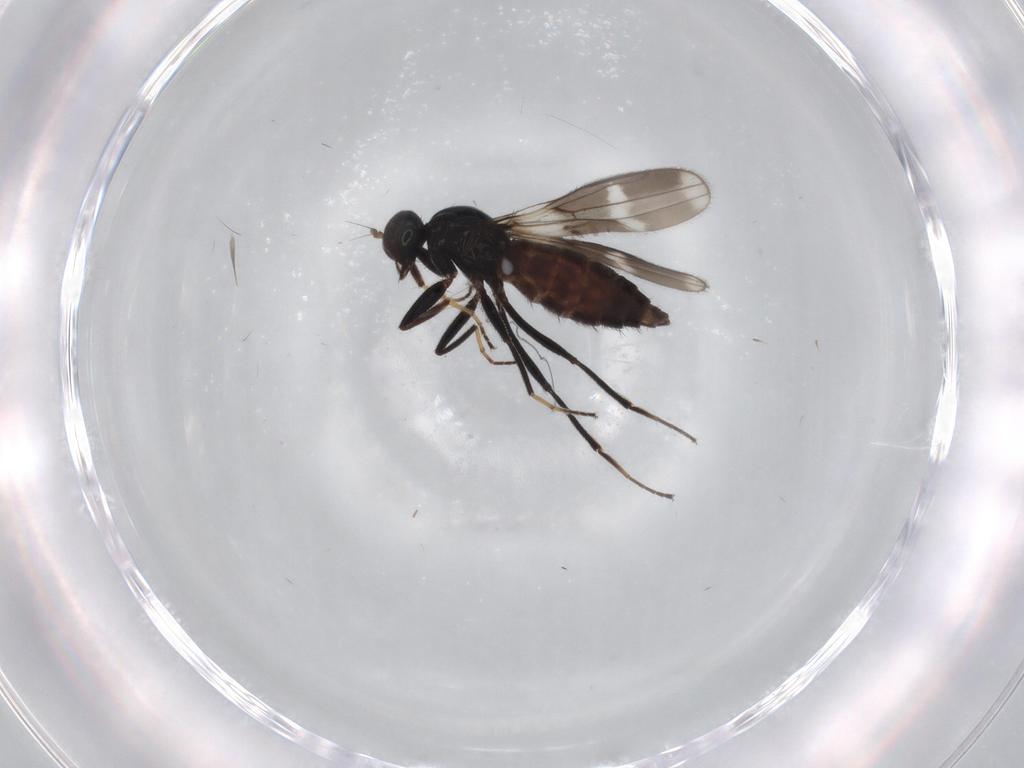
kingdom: Animalia
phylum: Arthropoda
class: Insecta
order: Diptera
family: Hybotidae
